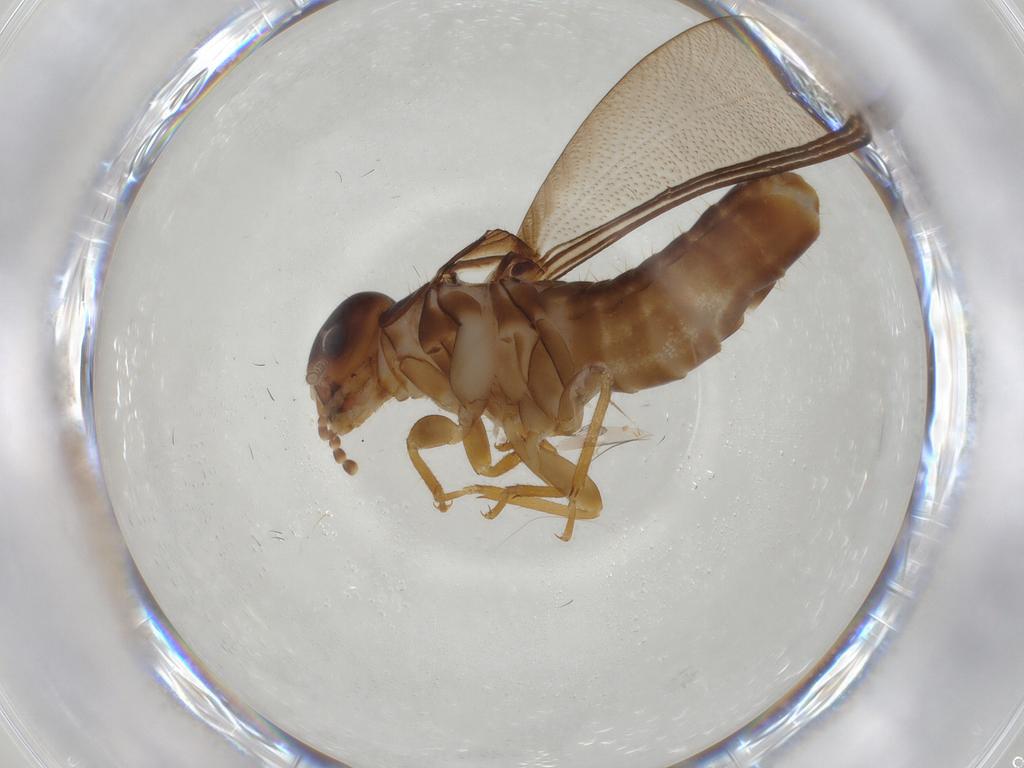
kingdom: Animalia
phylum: Arthropoda
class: Insecta
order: Blattodea
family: Kalotermitidae
